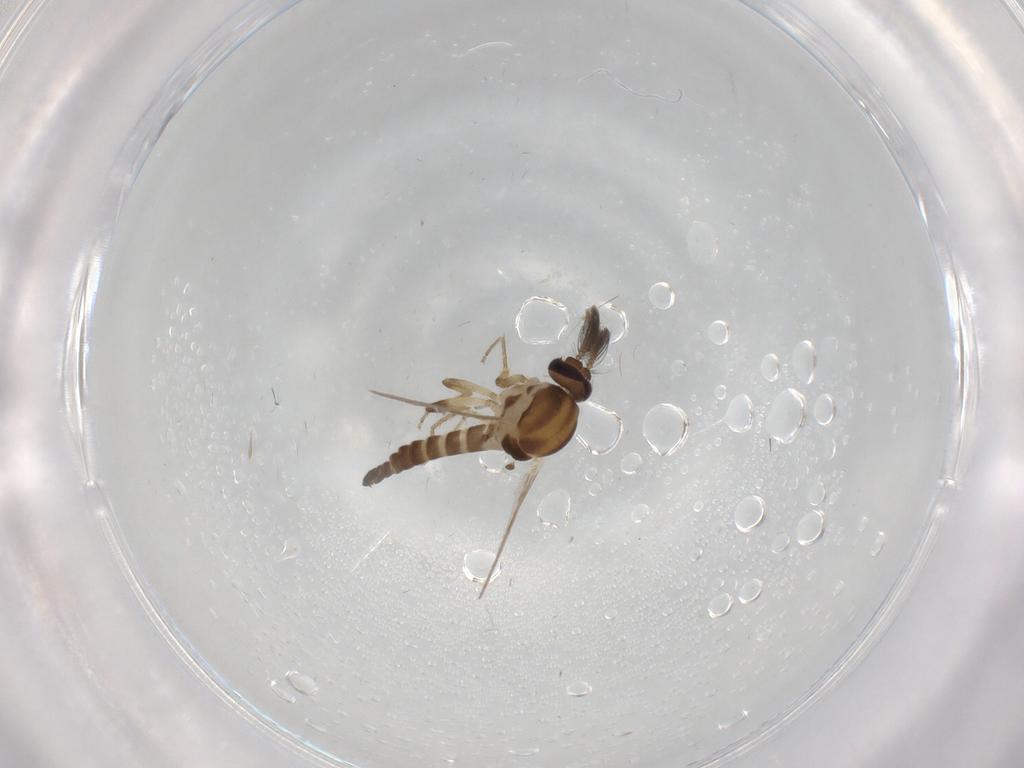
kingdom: Animalia
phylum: Arthropoda
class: Insecta
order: Diptera
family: Ceratopogonidae
